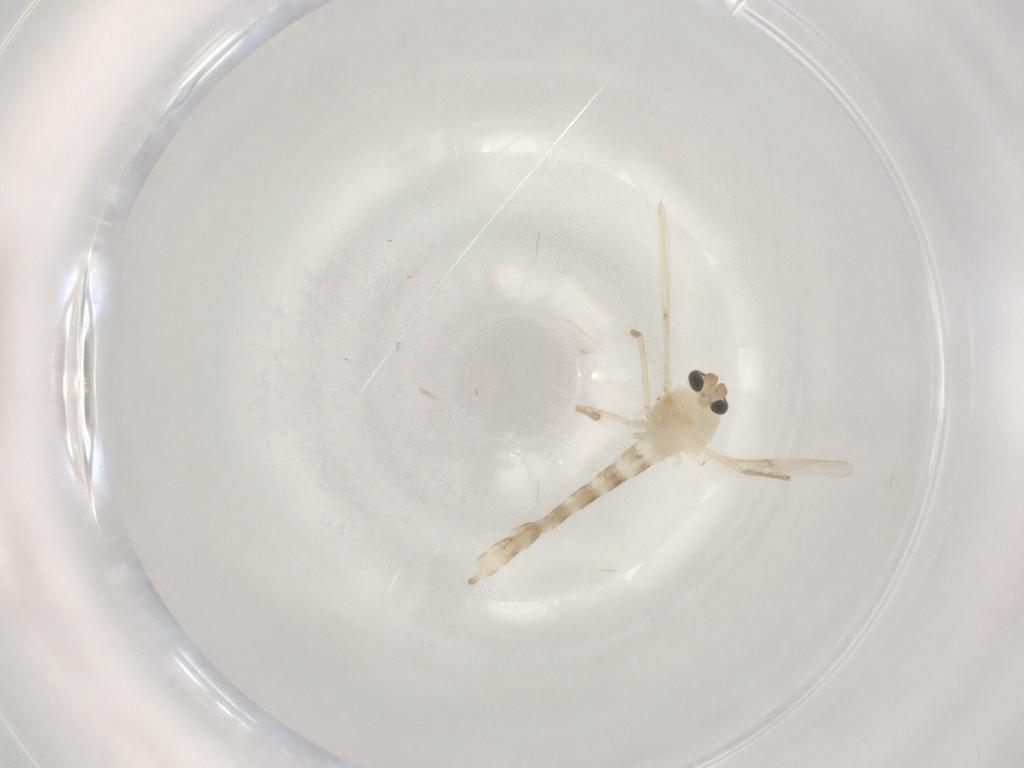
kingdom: Animalia
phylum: Arthropoda
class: Insecta
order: Diptera
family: Chironomidae
